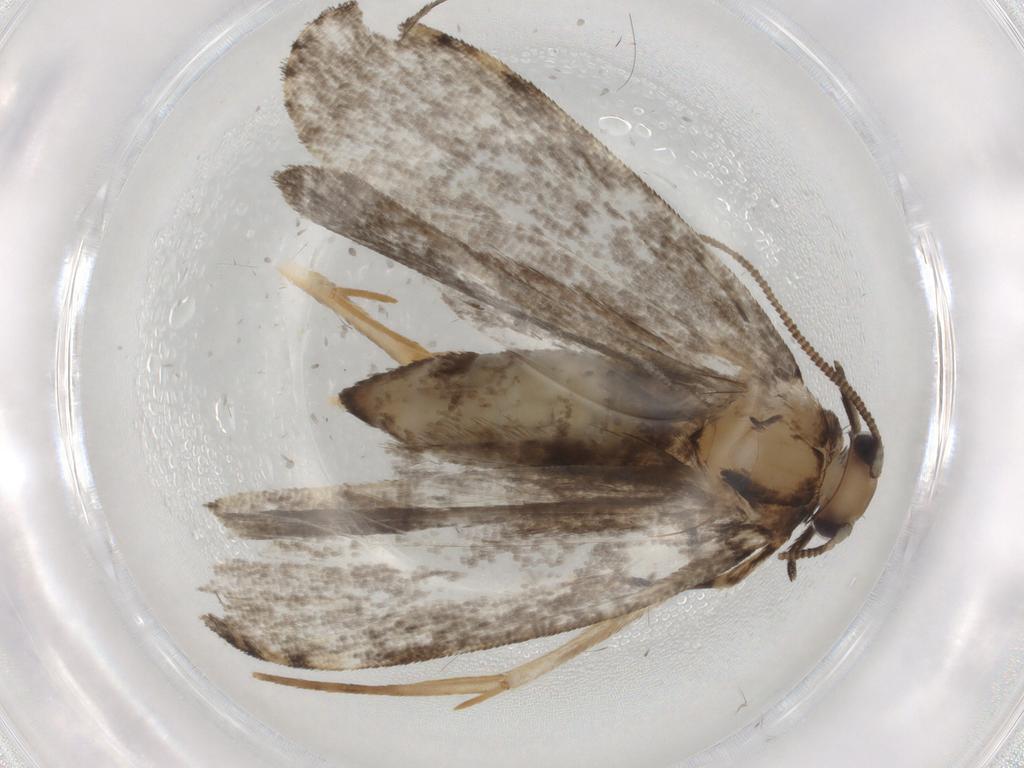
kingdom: Animalia
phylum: Arthropoda
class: Insecta
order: Lepidoptera
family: Tineidae
